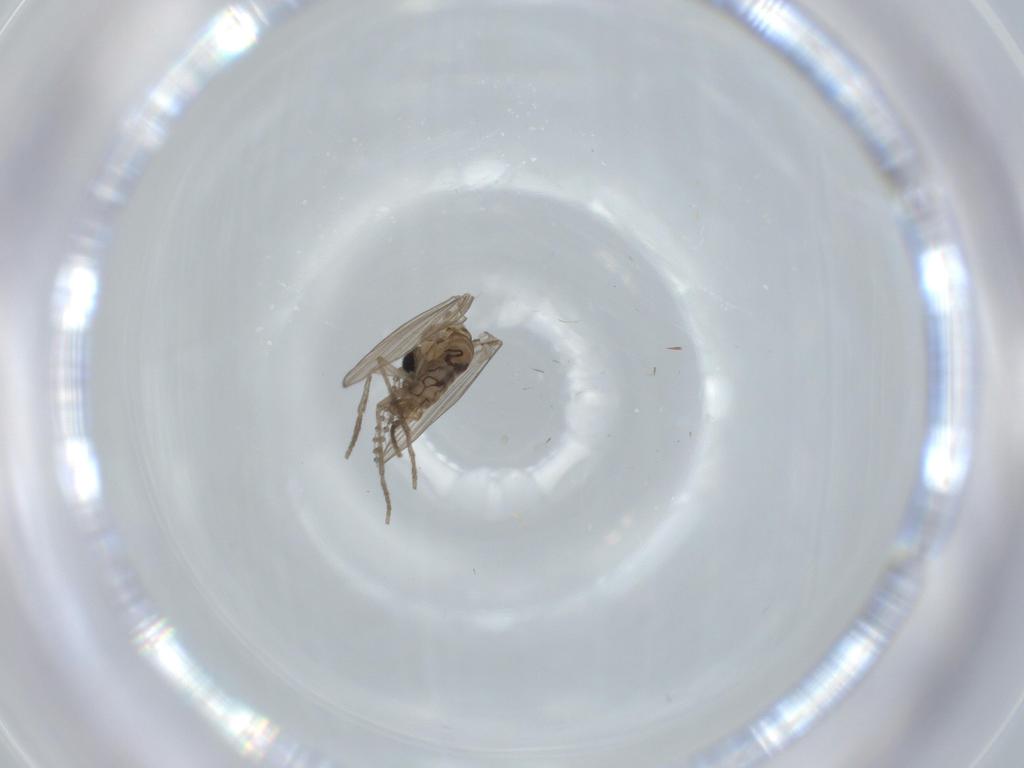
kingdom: Animalia
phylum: Arthropoda
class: Insecta
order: Diptera
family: Psychodidae
